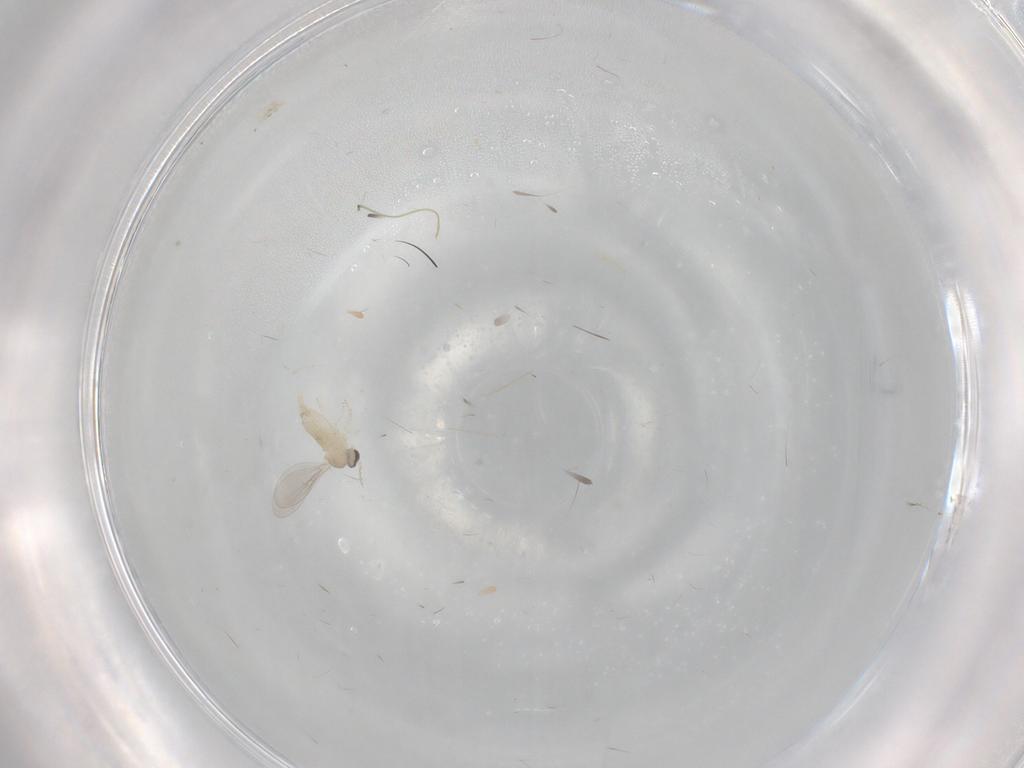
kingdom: Animalia
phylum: Arthropoda
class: Insecta
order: Diptera
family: Cecidomyiidae
